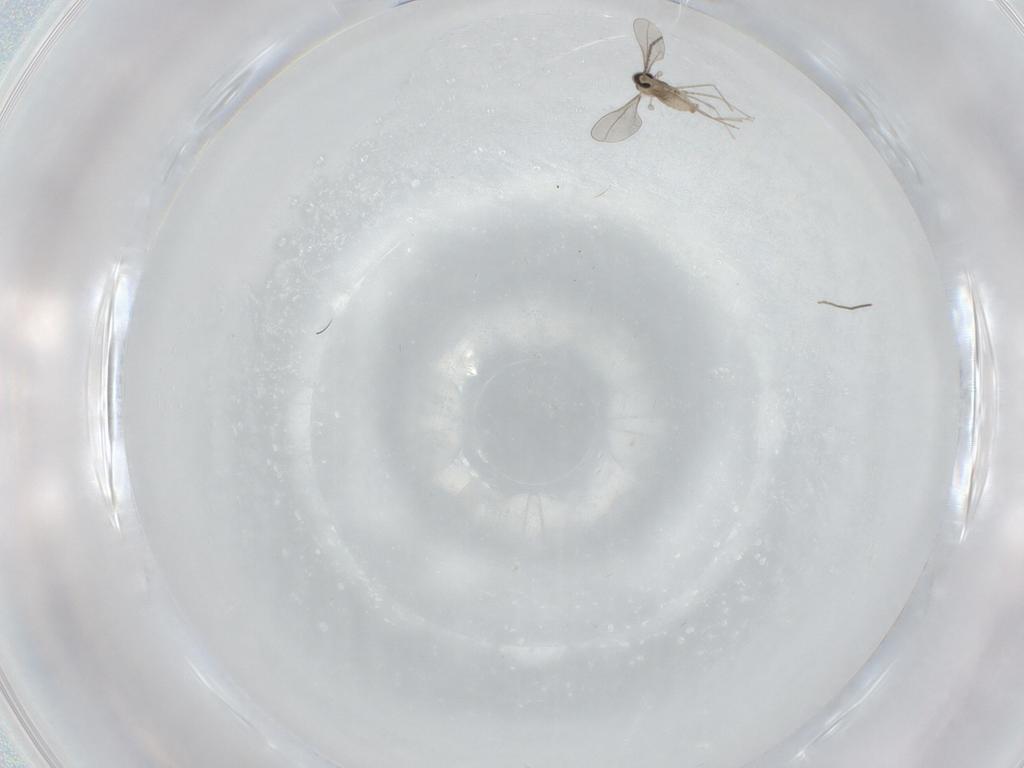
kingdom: Animalia
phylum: Arthropoda
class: Insecta
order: Diptera
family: Cecidomyiidae
